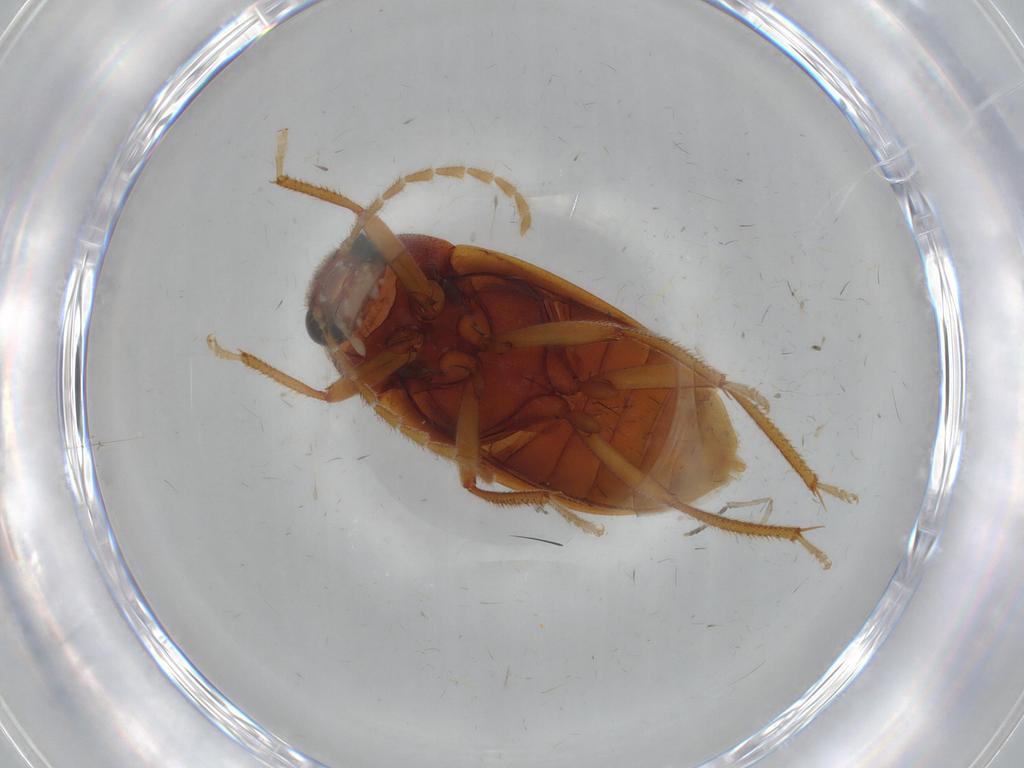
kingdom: Animalia
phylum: Arthropoda
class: Insecta
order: Coleoptera
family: Ptilodactylidae
